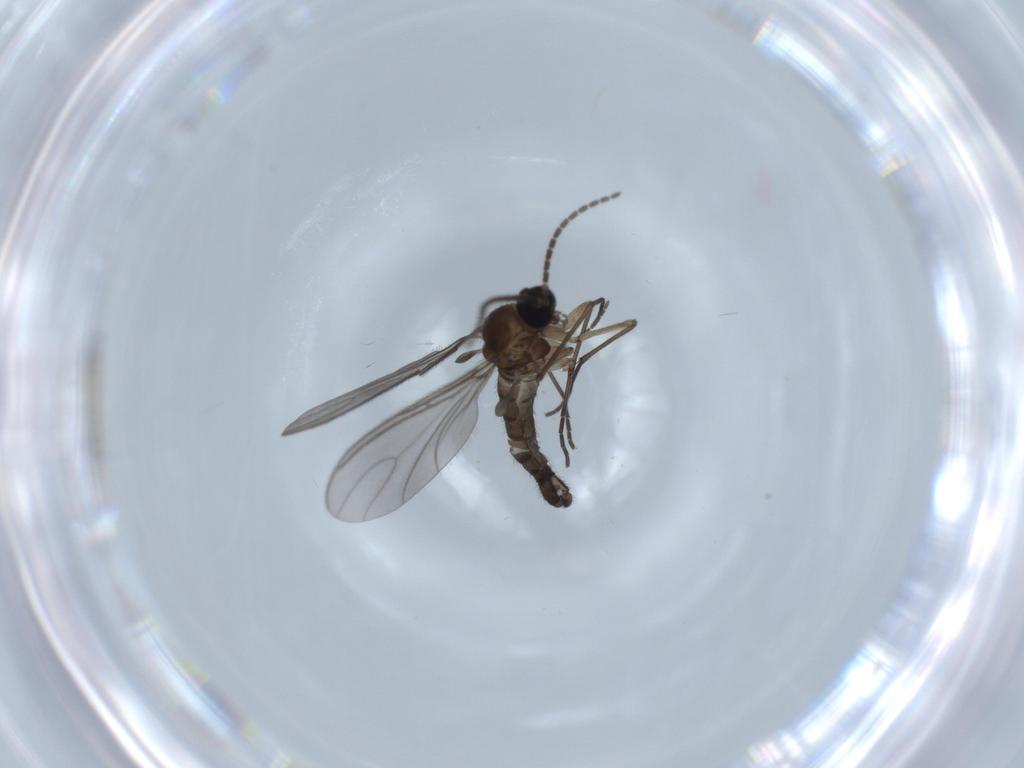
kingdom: Animalia
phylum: Arthropoda
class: Insecta
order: Diptera
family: Sciaridae
